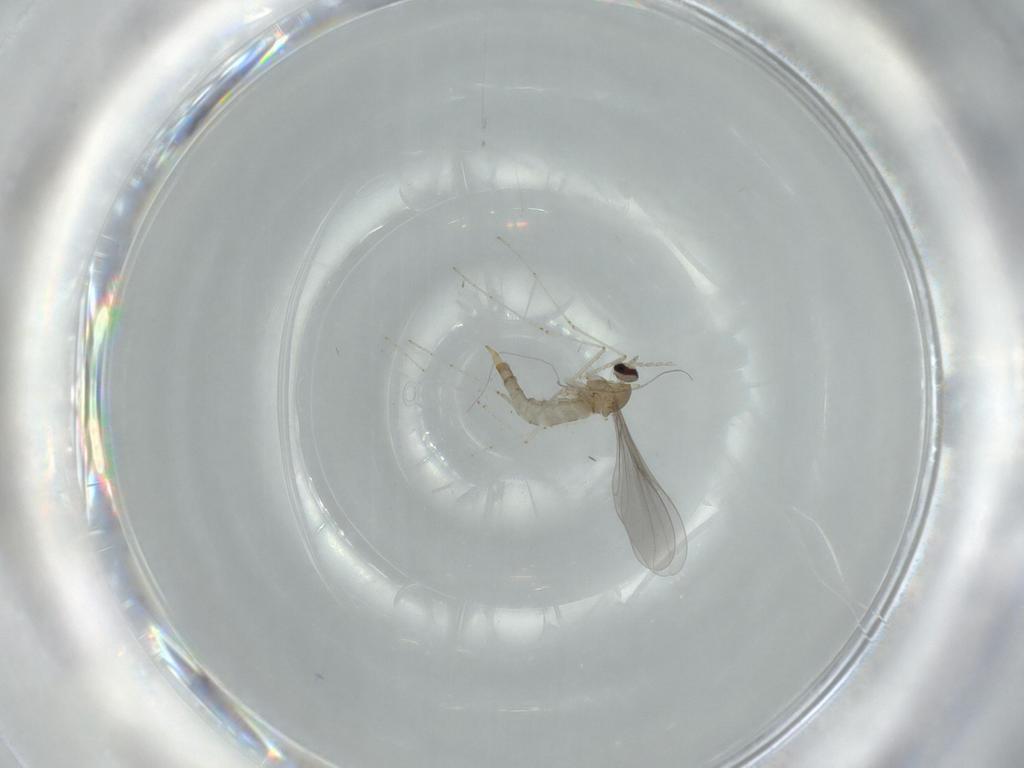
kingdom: Animalia
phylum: Arthropoda
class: Insecta
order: Diptera
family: Cecidomyiidae
